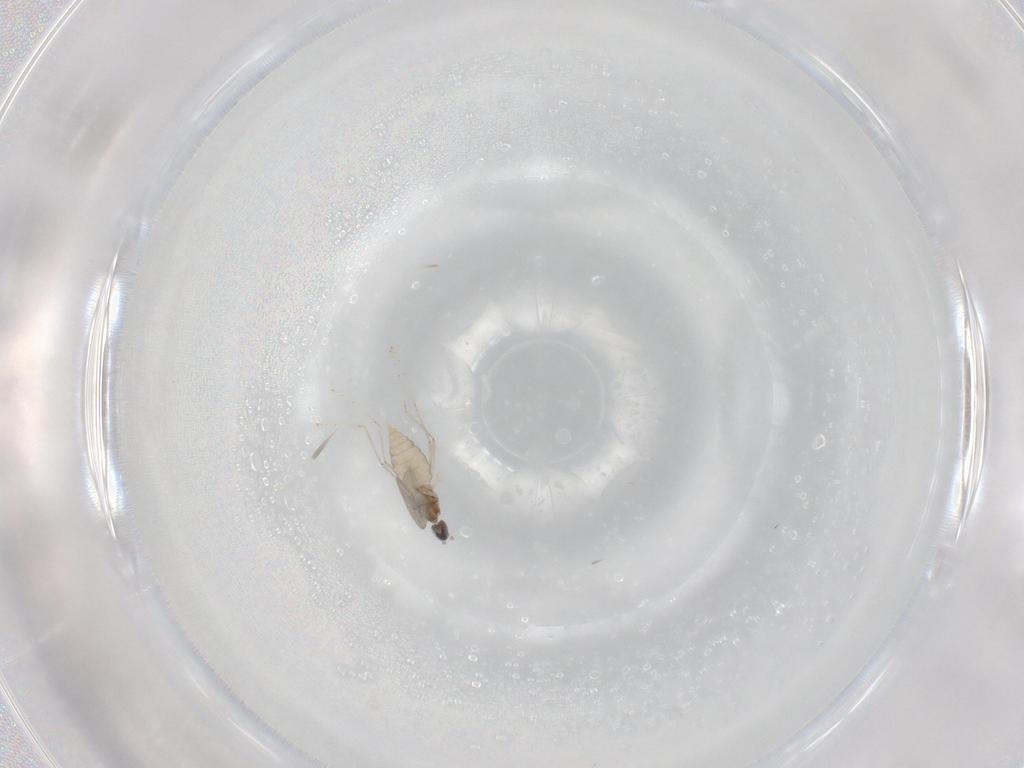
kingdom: Animalia
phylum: Arthropoda
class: Insecta
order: Diptera
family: Cecidomyiidae
